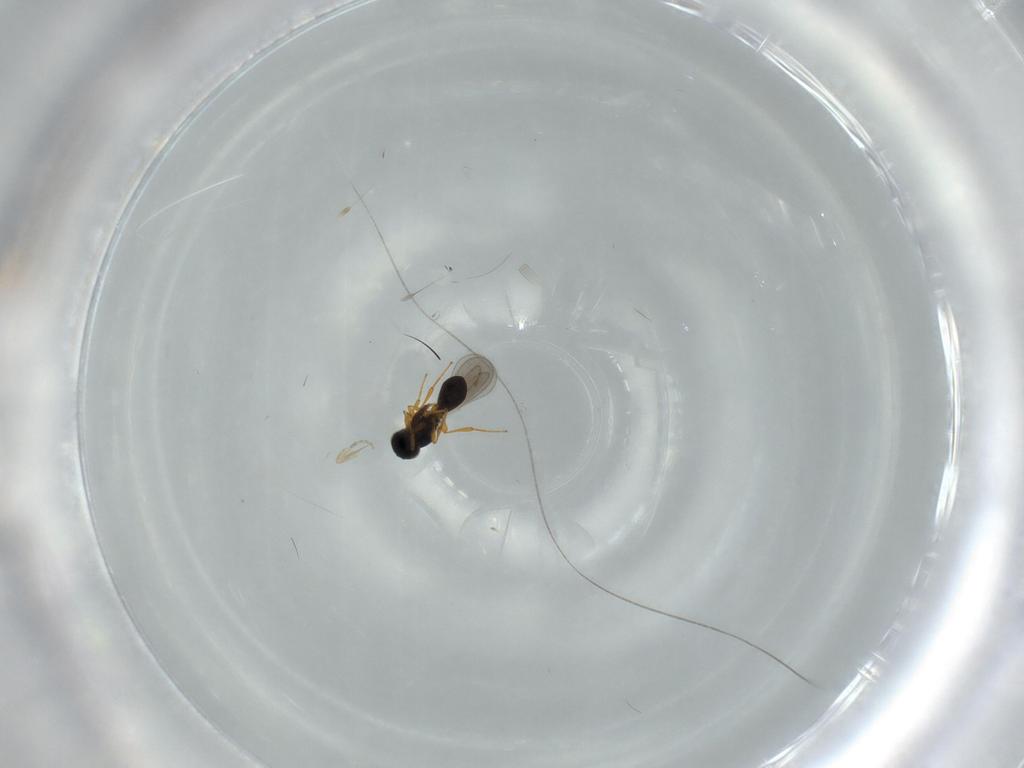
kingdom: Animalia
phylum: Arthropoda
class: Insecta
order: Hymenoptera
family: Platygastridae
